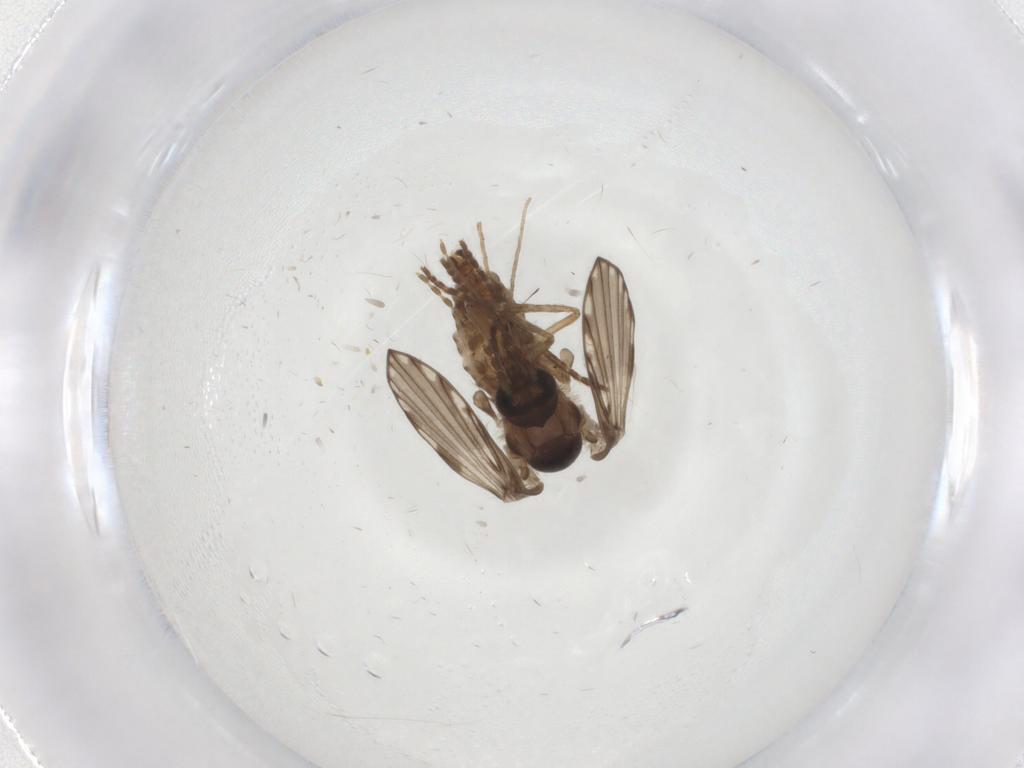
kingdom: Animalia
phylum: Arthropoda
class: Insecta
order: Diptera
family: Psychodidae
